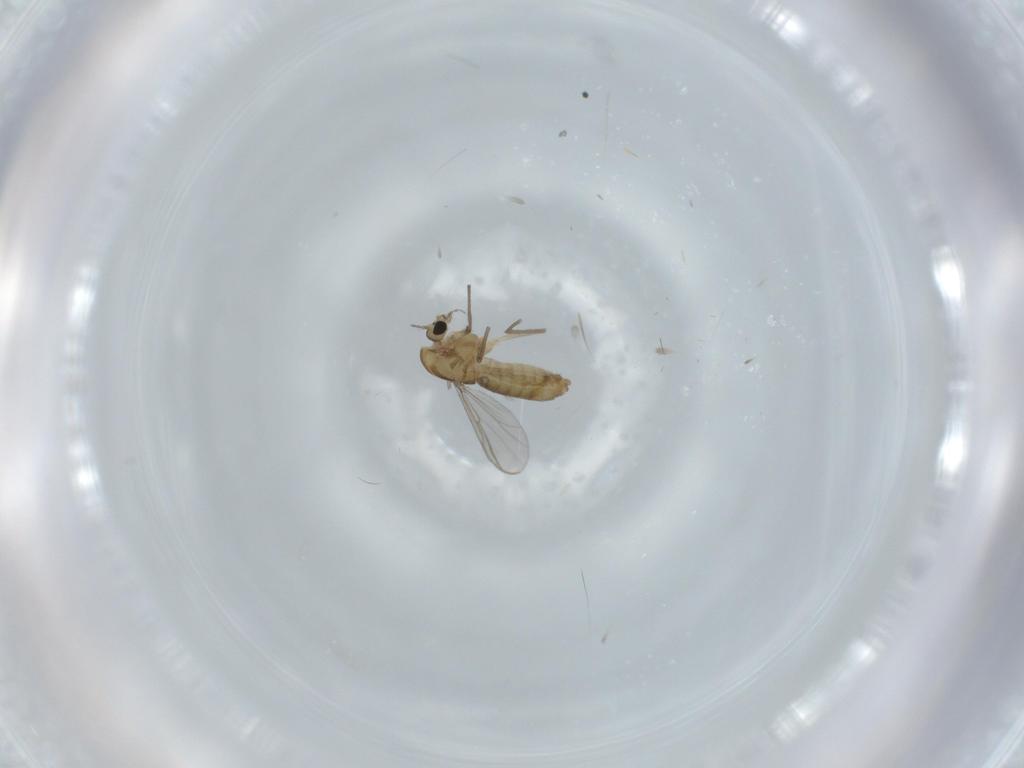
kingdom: Animalia
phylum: Arthropoda
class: Insecta
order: Diptera
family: Chironomidae
